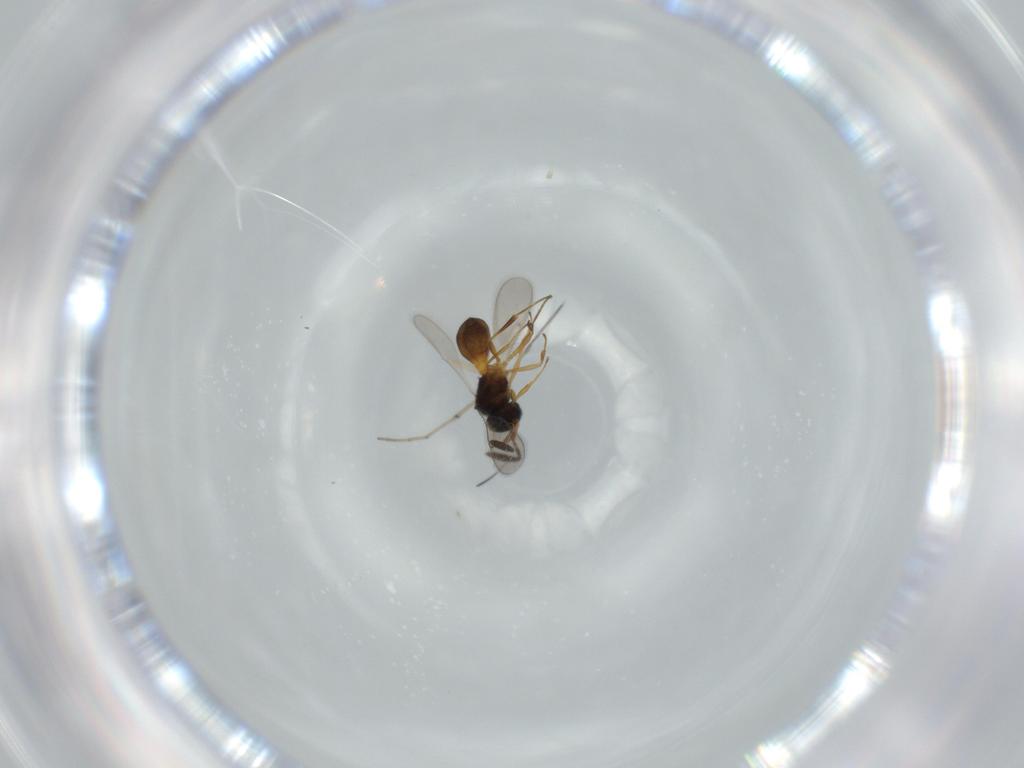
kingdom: Animalia
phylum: Arthropoda
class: Insecta
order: Hymenoptera
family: Scelionidae
